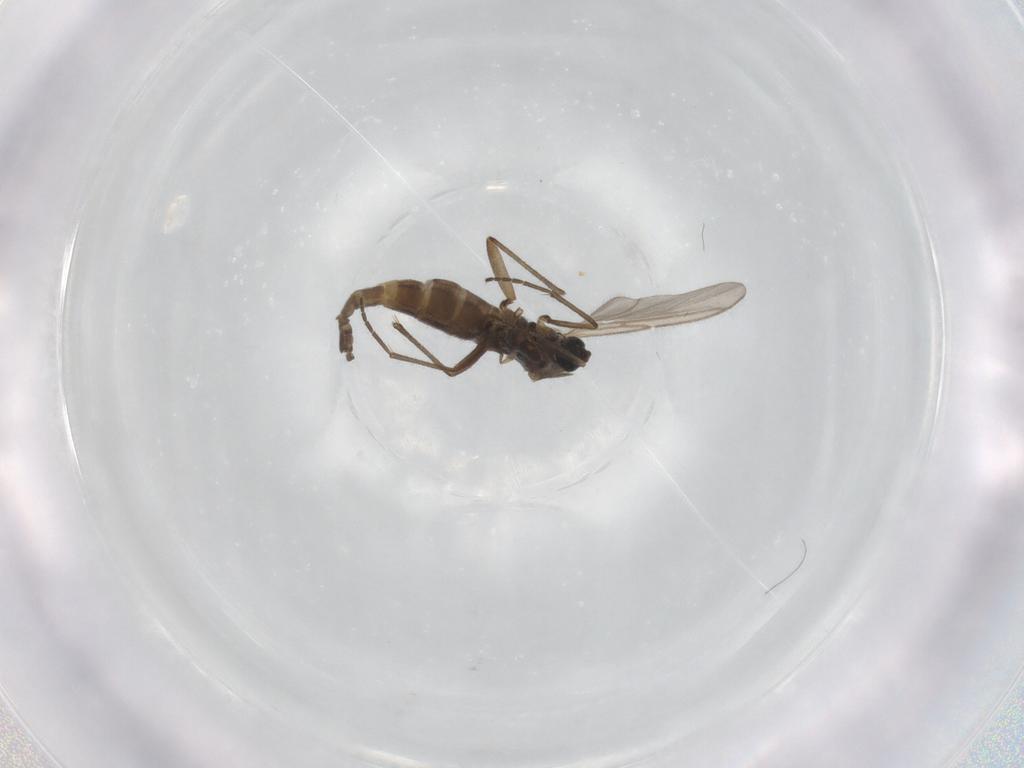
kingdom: Animalia
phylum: Arthropoda
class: Insecta
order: Diptera
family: Sciaridae
